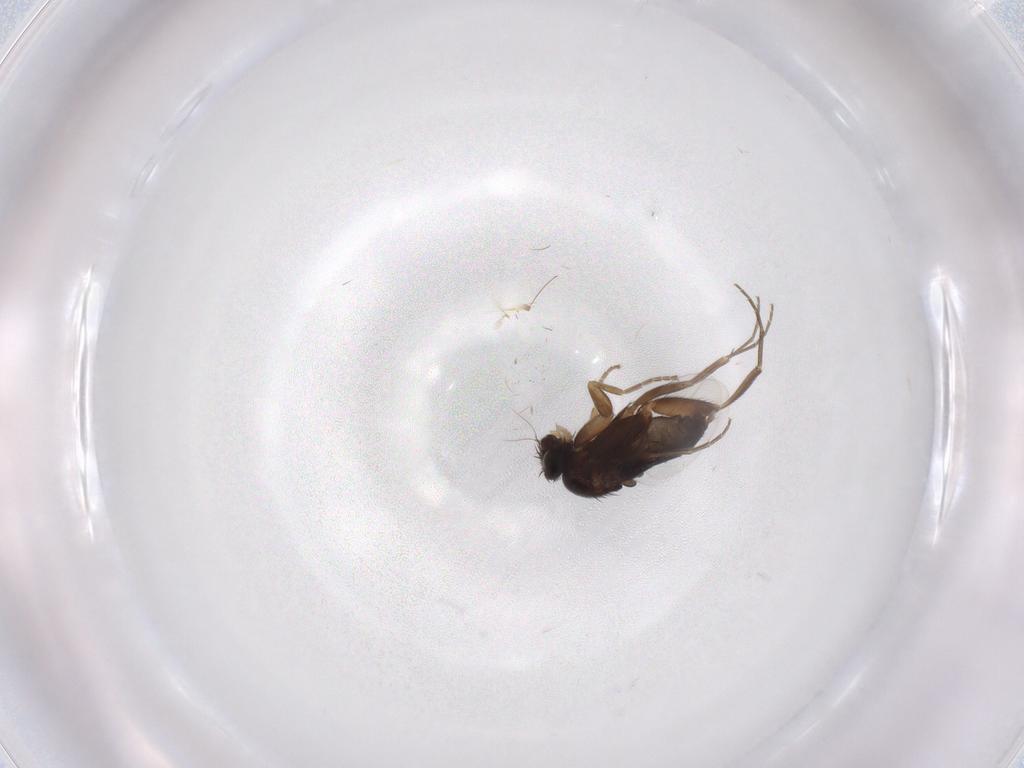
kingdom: Animalia
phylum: Arthropoda
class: Insecta
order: Diptera
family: Phoridae
